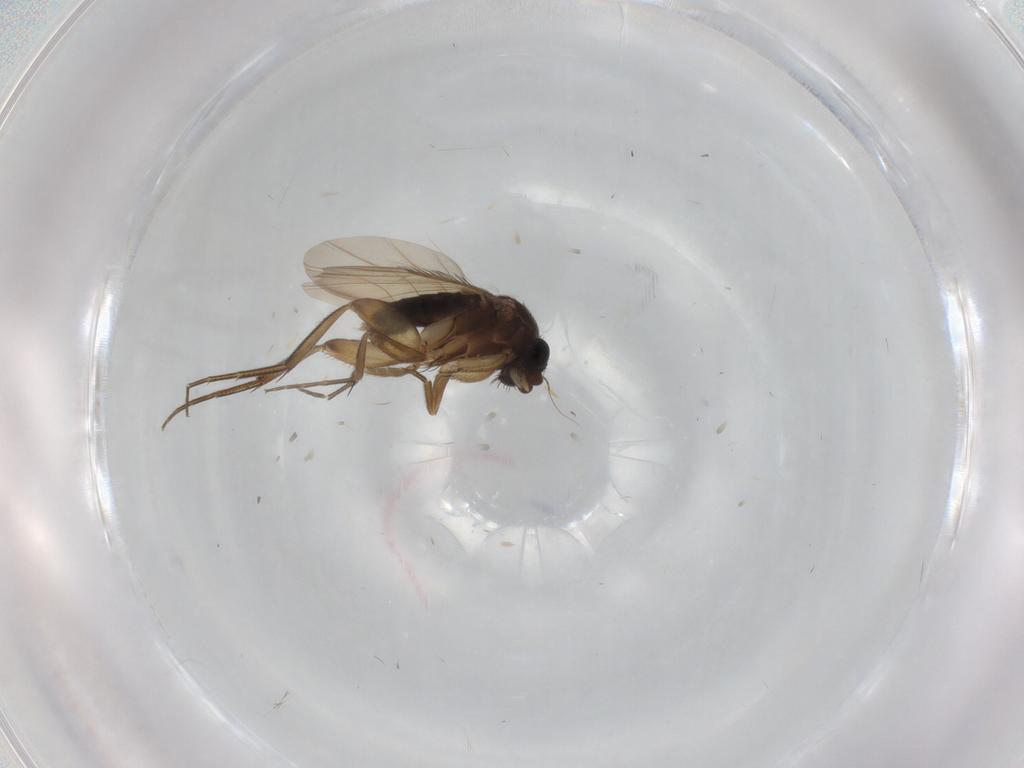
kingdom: Animalia
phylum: Arthropoda
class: Insecta
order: Diptera
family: Phoridae
